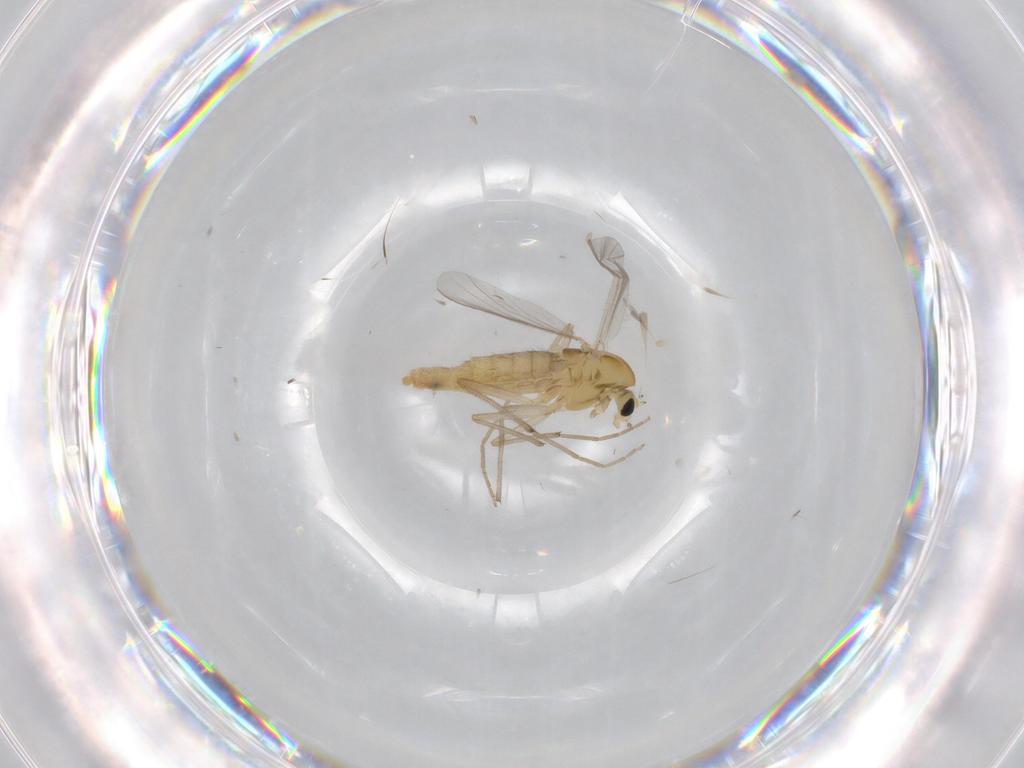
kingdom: Animalia
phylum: Arthropoda
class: Insecta
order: Diptera
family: Chironomidae
